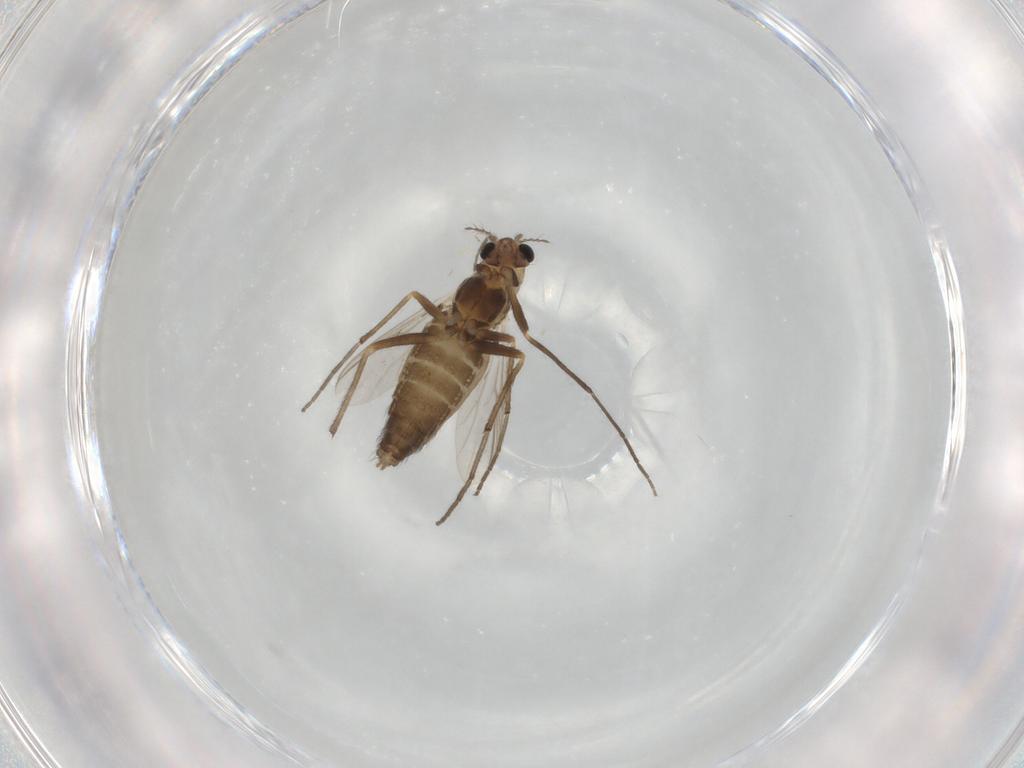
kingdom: Animalia
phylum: Arthropoda
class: Insecta
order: Diptera
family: Chironomidae
